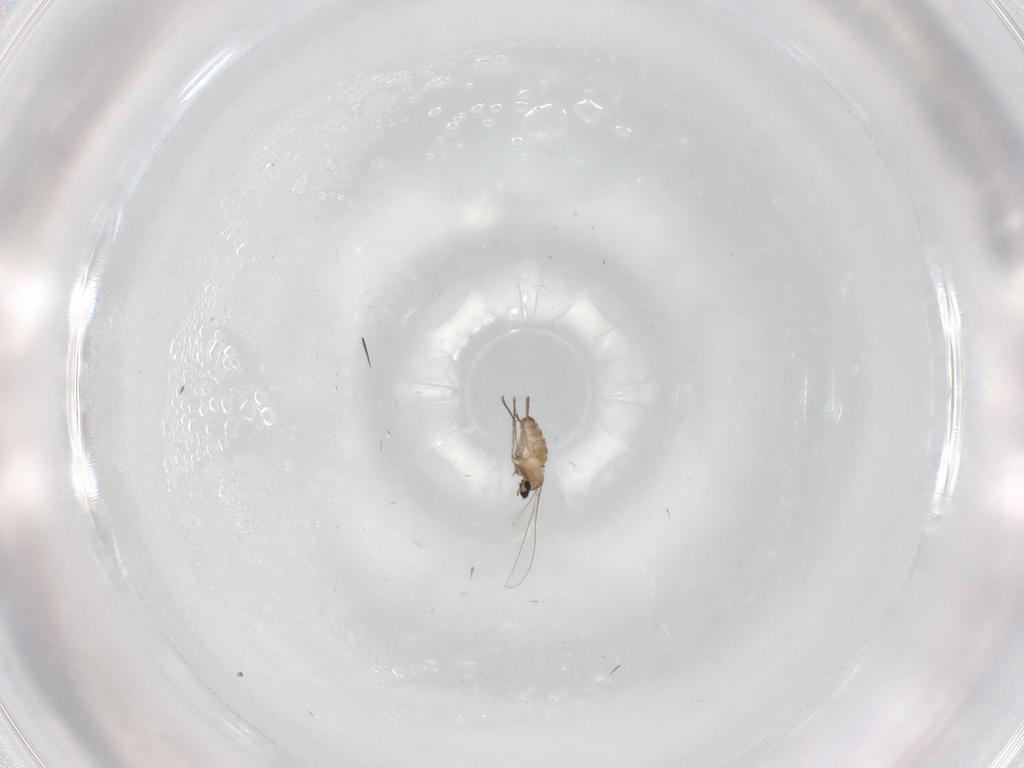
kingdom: Animalia
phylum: Arthropoda
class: Insecta
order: Diptera
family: Cecidomyiidae
